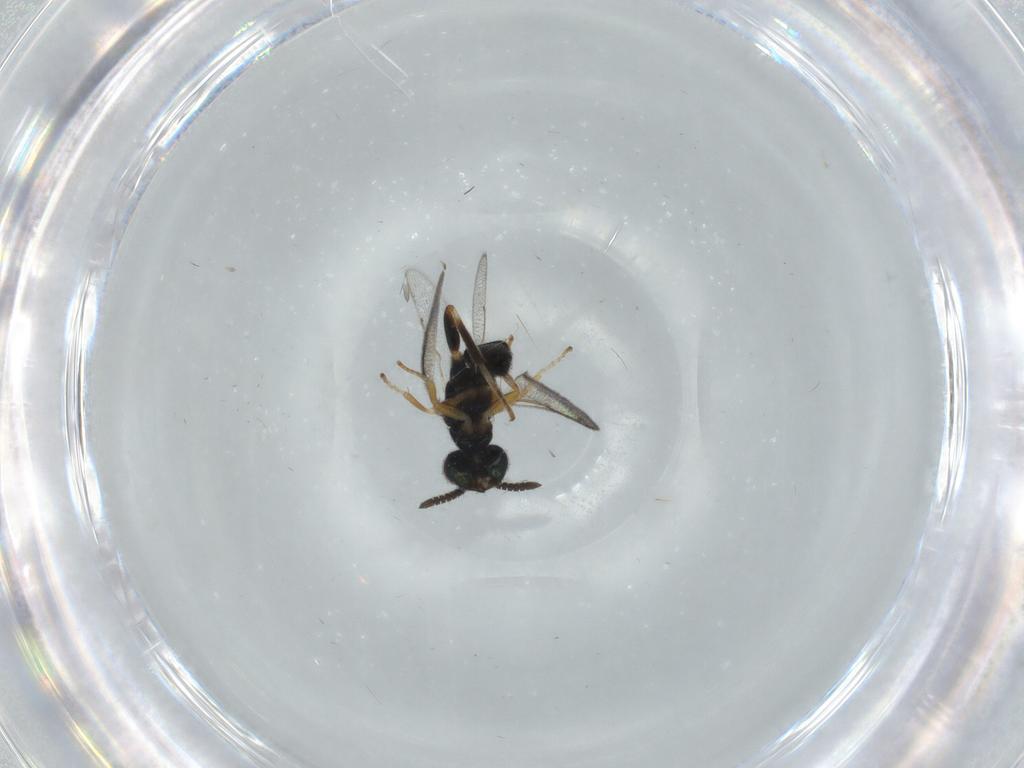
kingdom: Animalia
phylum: Arthropoda
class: Insecta
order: Hymenoptera
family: Cleonyminae
